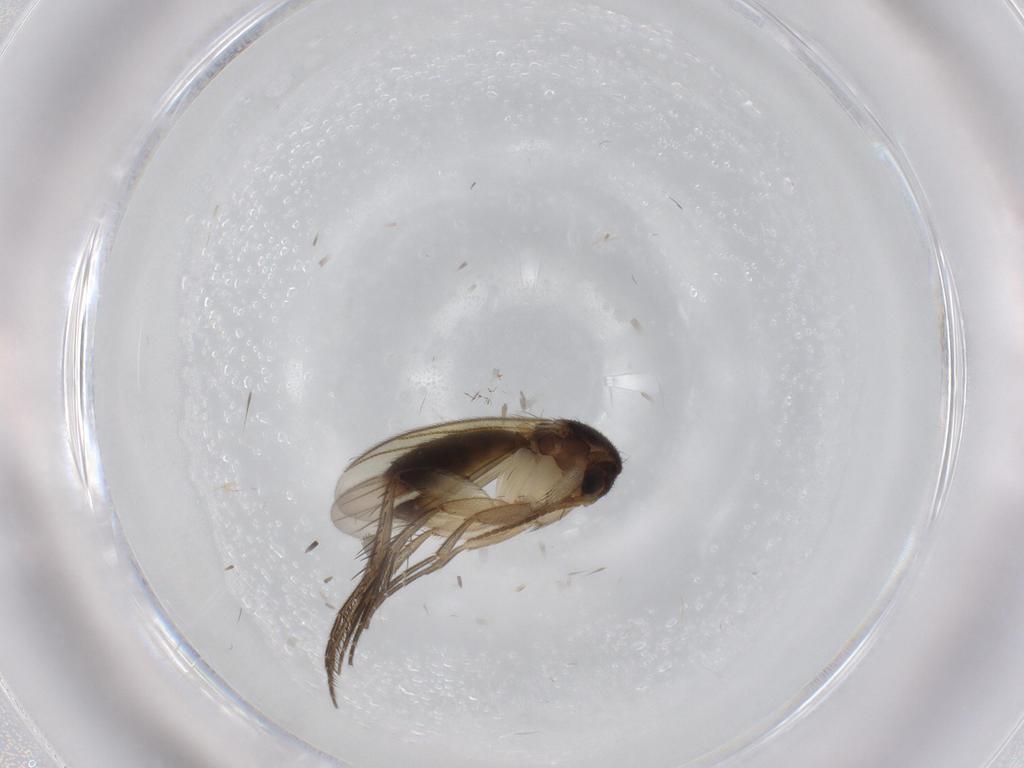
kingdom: Animalia
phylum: Arthropoda
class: Insecta
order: Diptera
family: Mycetophilidae
